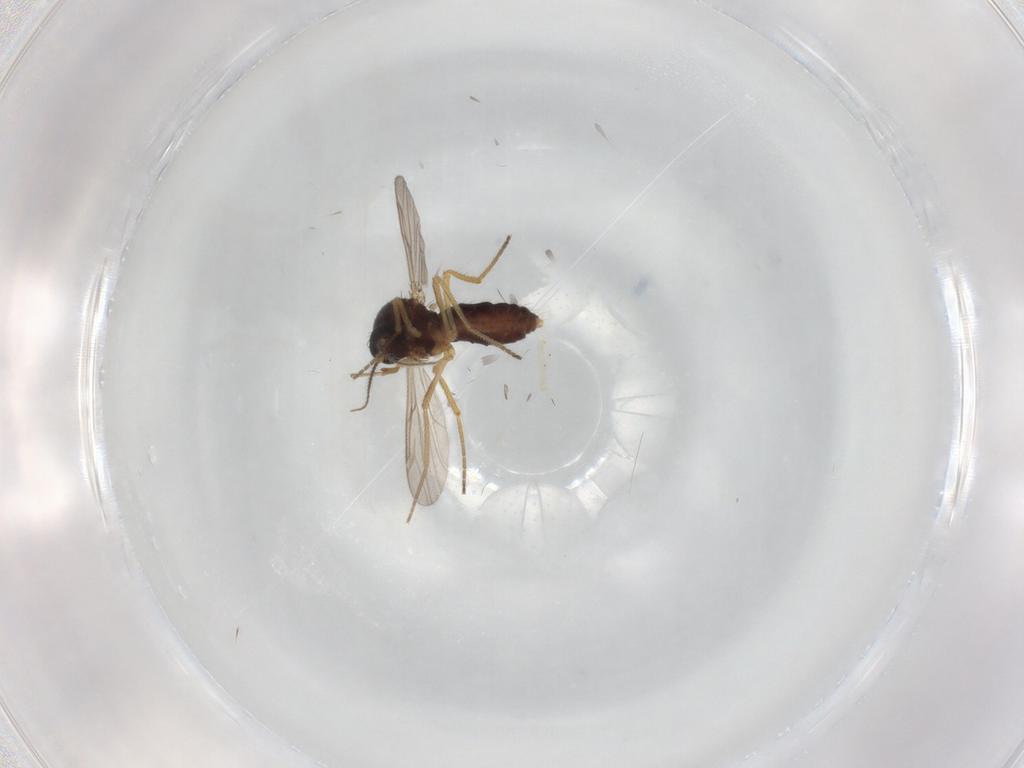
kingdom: Animalia
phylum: Arthropoda
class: Insecta
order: Diptera
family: Ceratopogonidae
